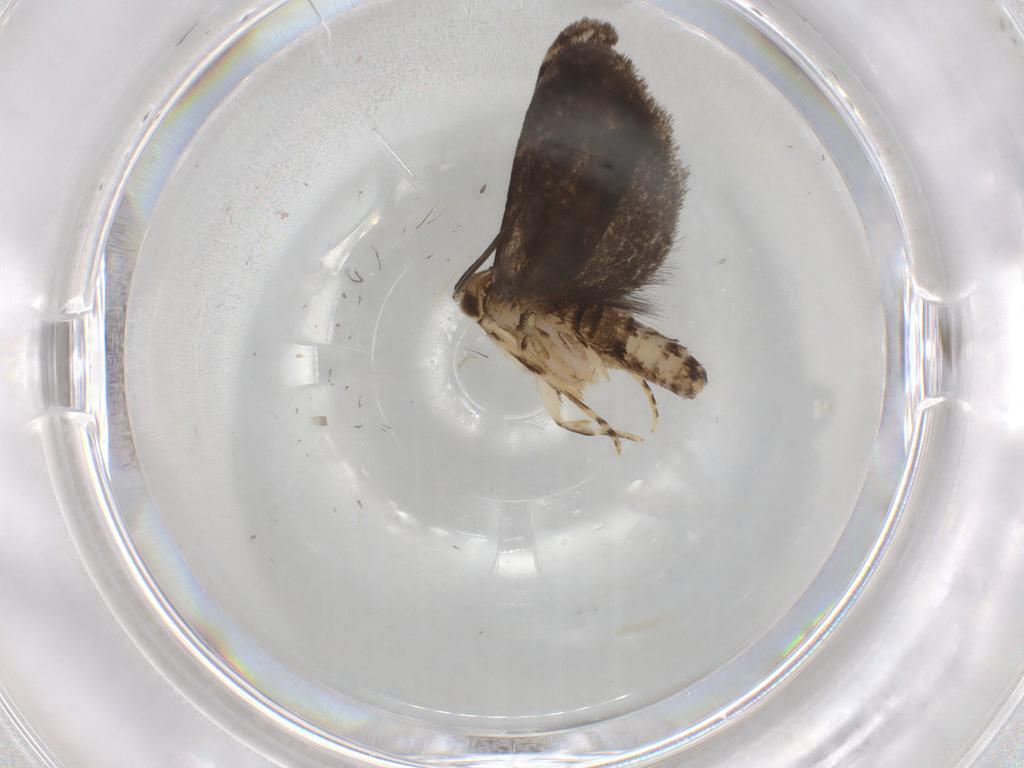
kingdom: Animalia
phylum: Arthropoda
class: Insecta
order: Lepidoptera
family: Dryadaulidae
